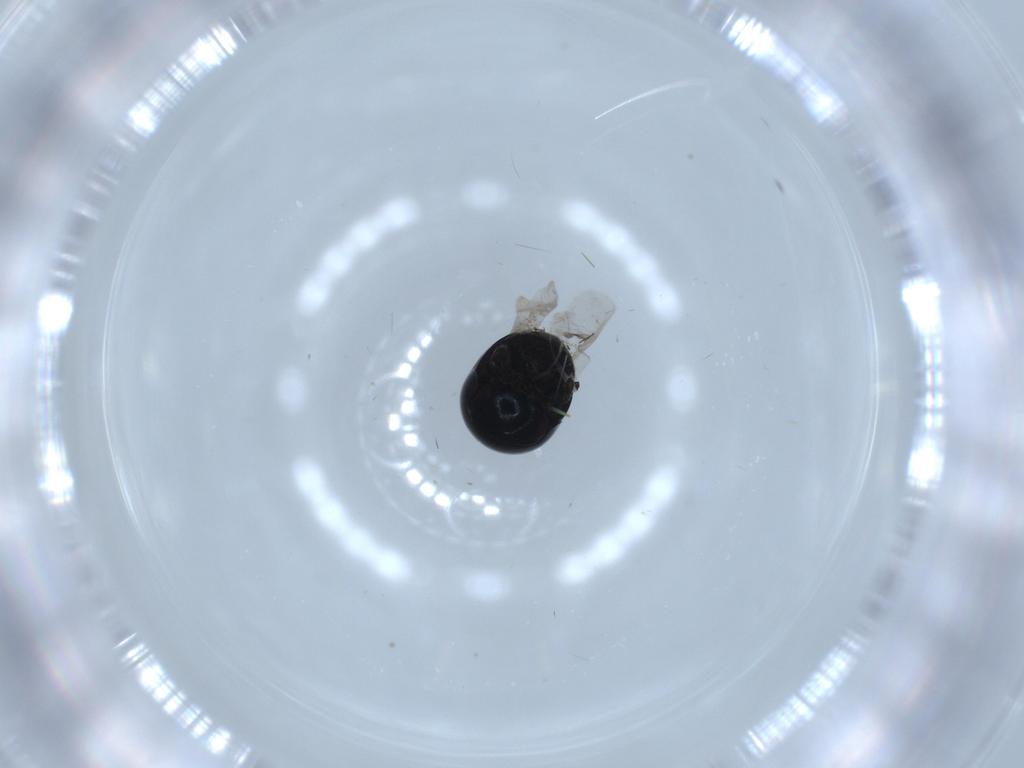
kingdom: Animalia
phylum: Arthropoda
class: Insecta
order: Coleoptera
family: Cybocephalidae
